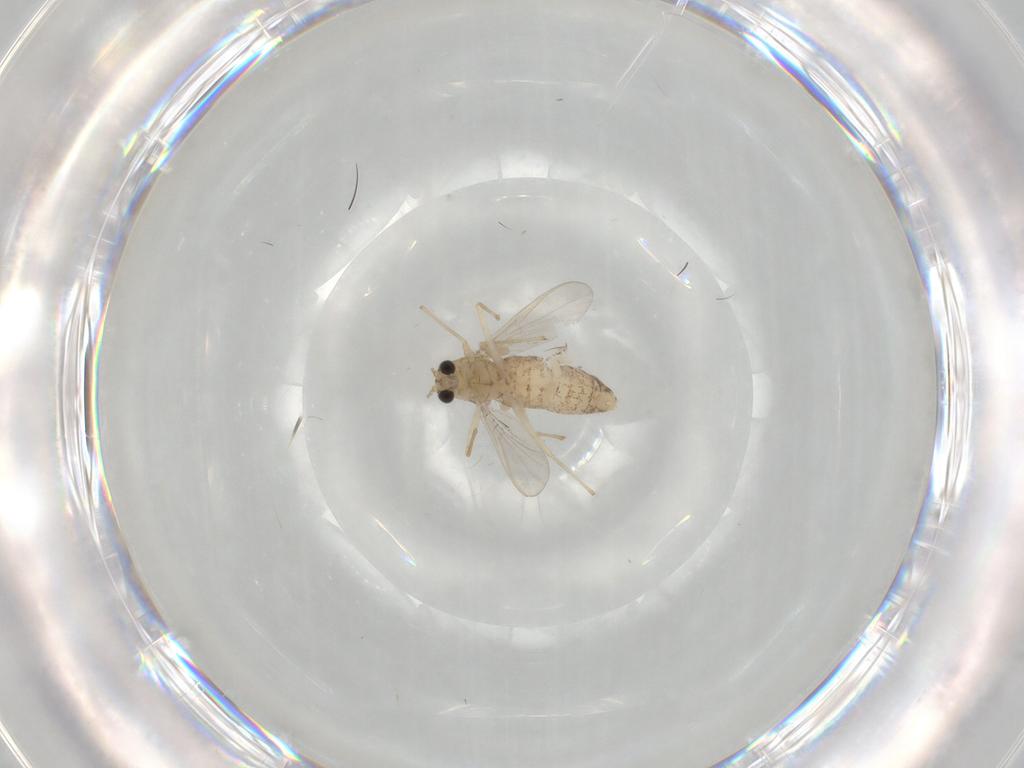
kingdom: Animalia
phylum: Arthropoda
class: Insecta
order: Diptera
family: Chironomidae
